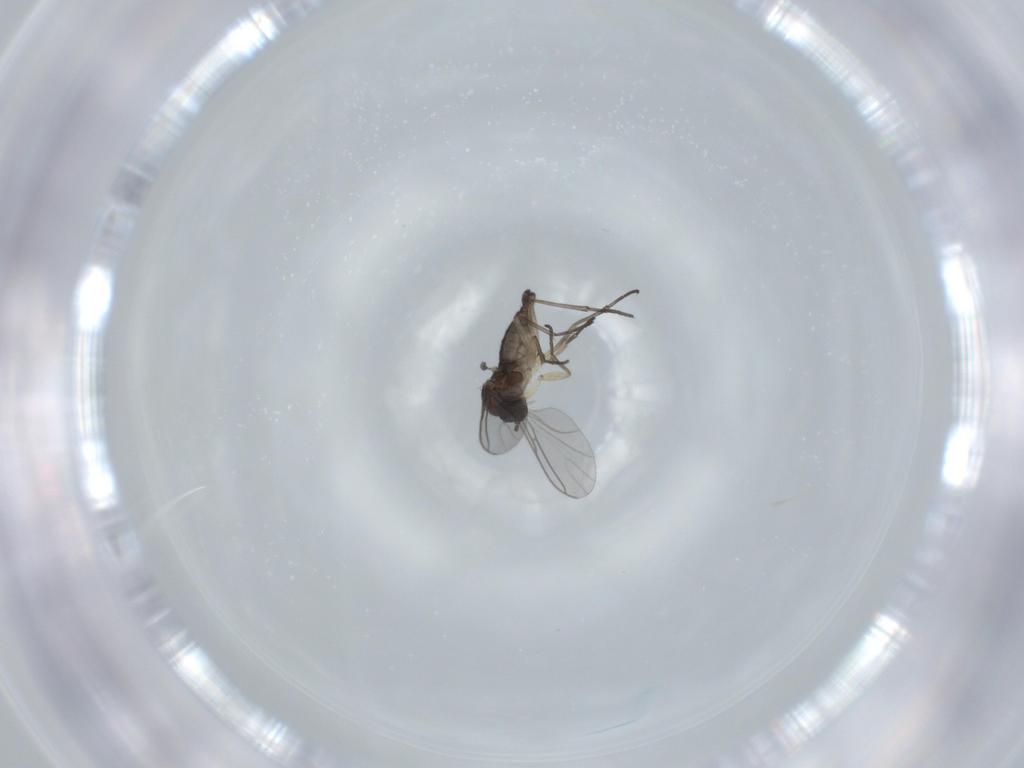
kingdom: Animalia
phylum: Arthropoda
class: Insecta
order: Diptera
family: Sciaridae
